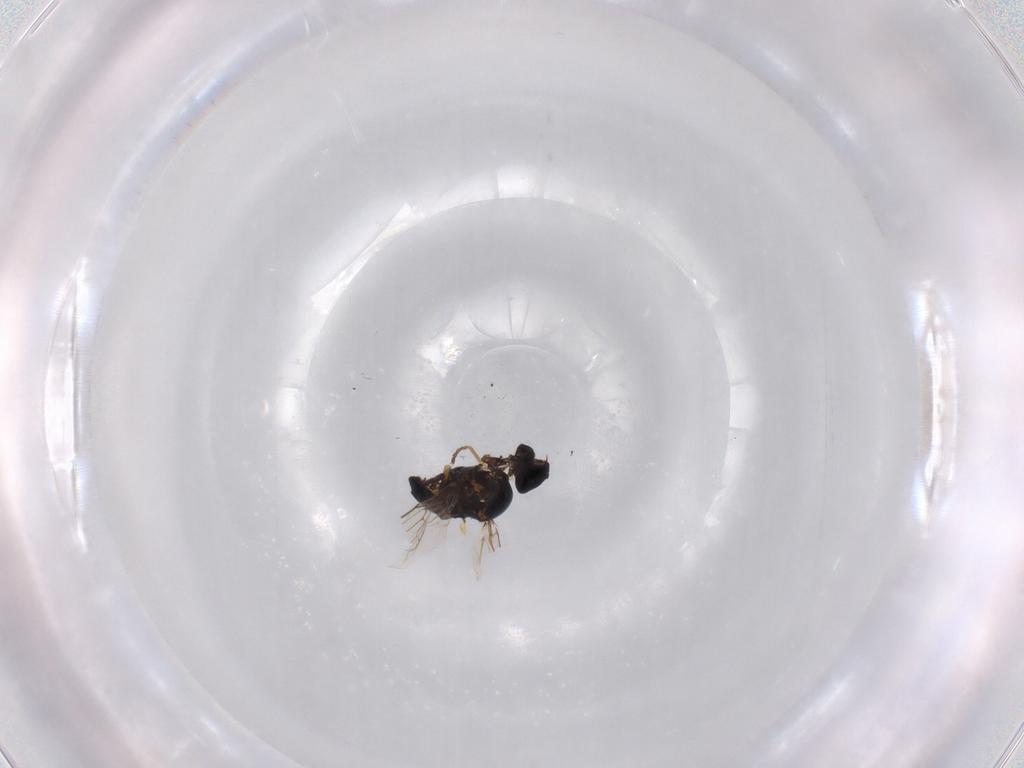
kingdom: Animalia
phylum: Arthropoda
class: Insecta
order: Diptera
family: Chloropidae
